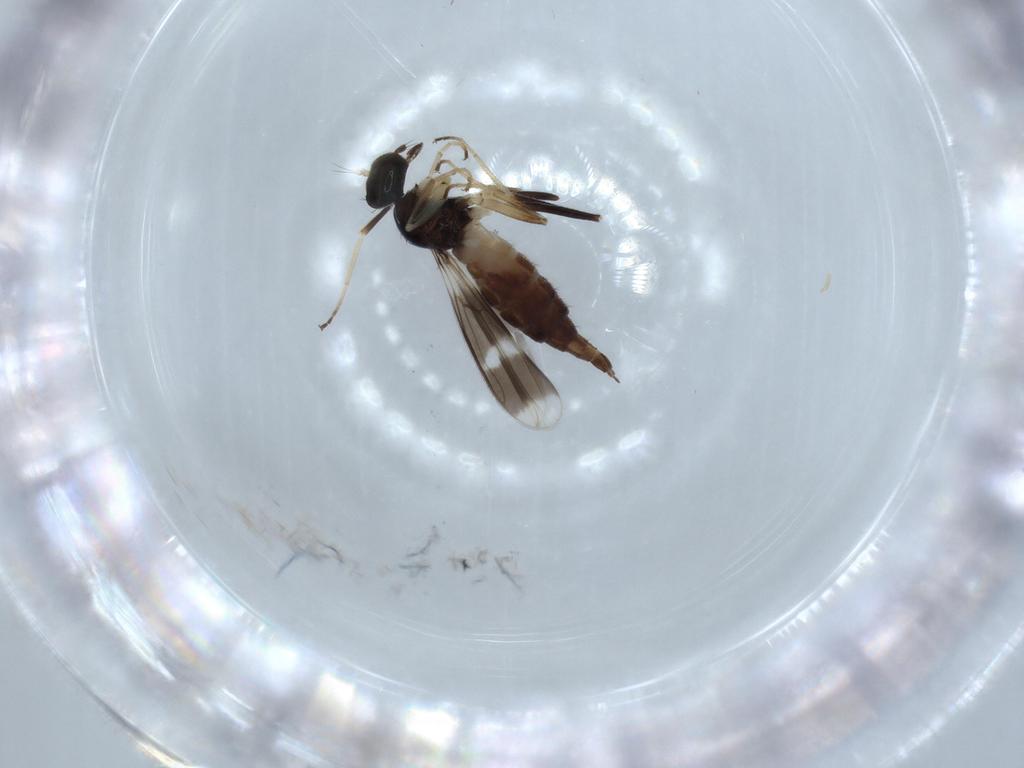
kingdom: Animalia
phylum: Arthropoda
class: Insecta
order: Diptera
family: Hybotidae
